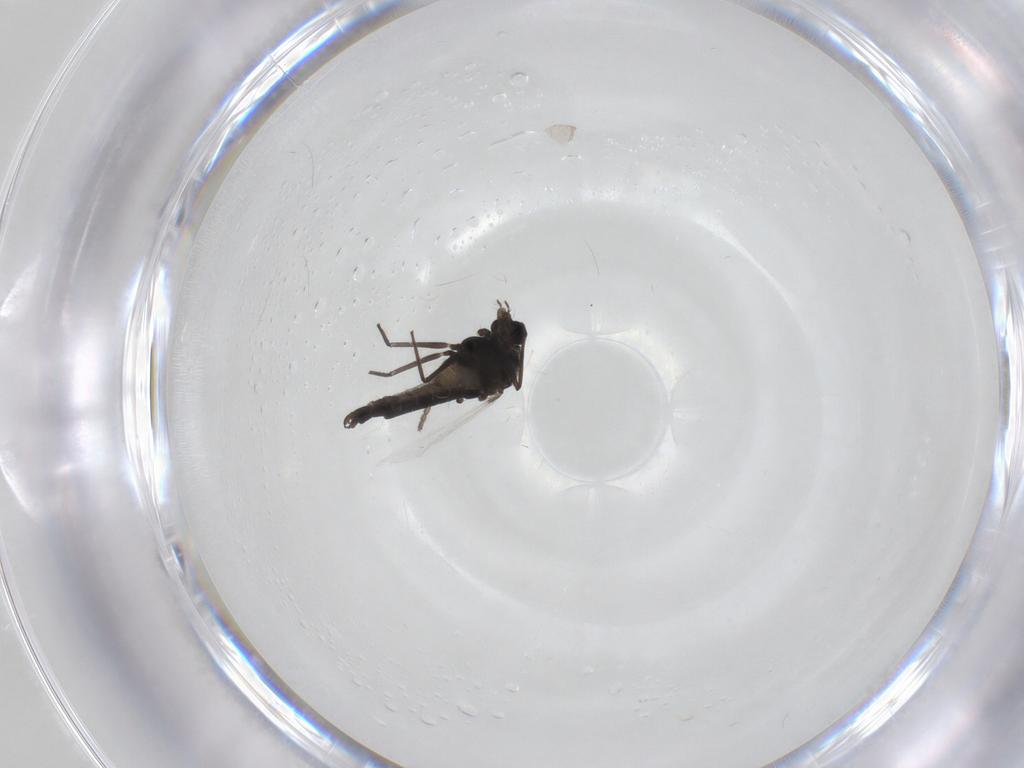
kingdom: Animalia
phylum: Arthropoda
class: Insecta
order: Diptera
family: Chironomidae
